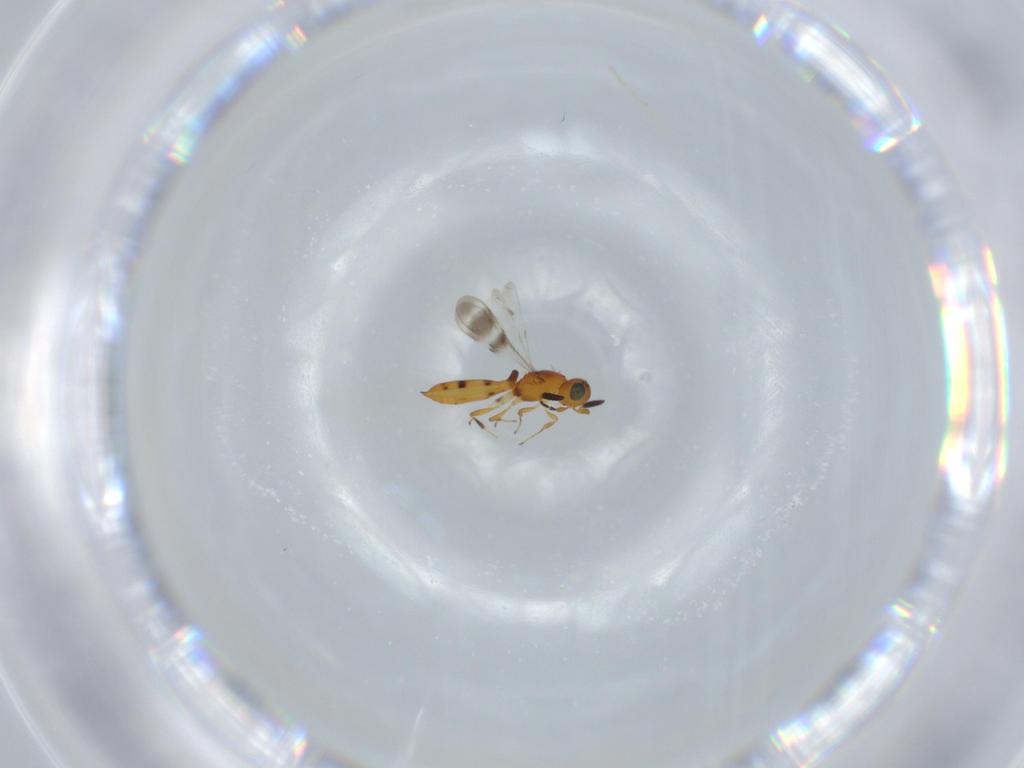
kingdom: Animalia
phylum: Arthropoda
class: Insecta
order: Hymenoptera
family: Scelionidae
